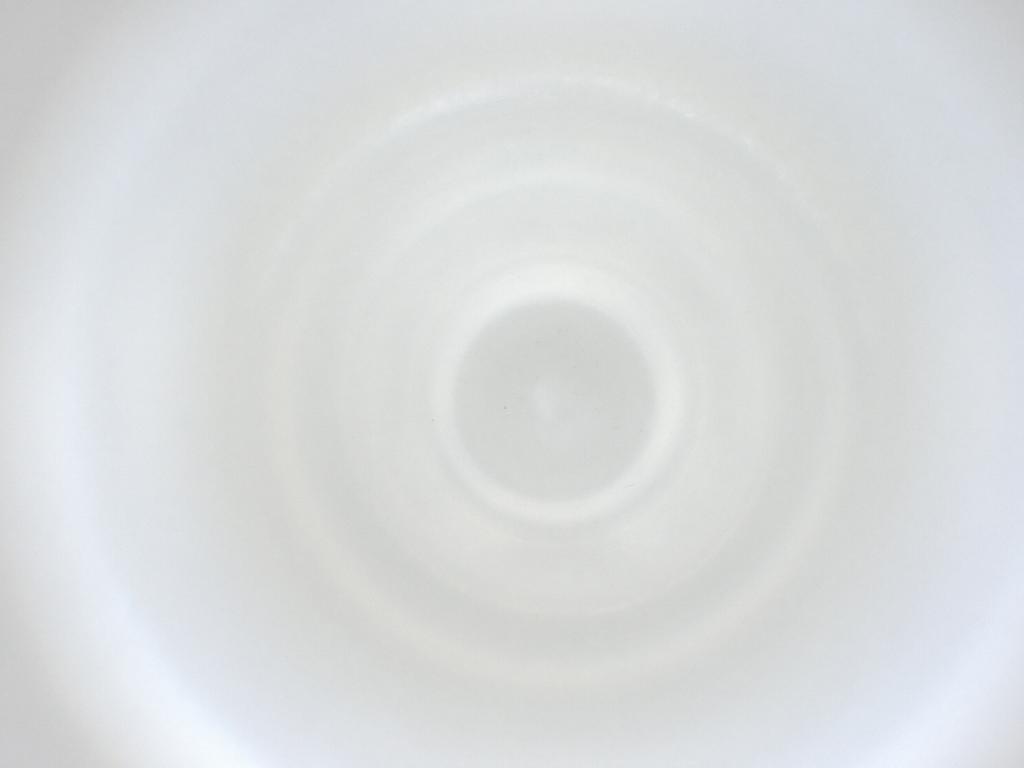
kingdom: Animalia
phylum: Arthropoda
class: Insecta
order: Diptera
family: Cecidomyiidae
